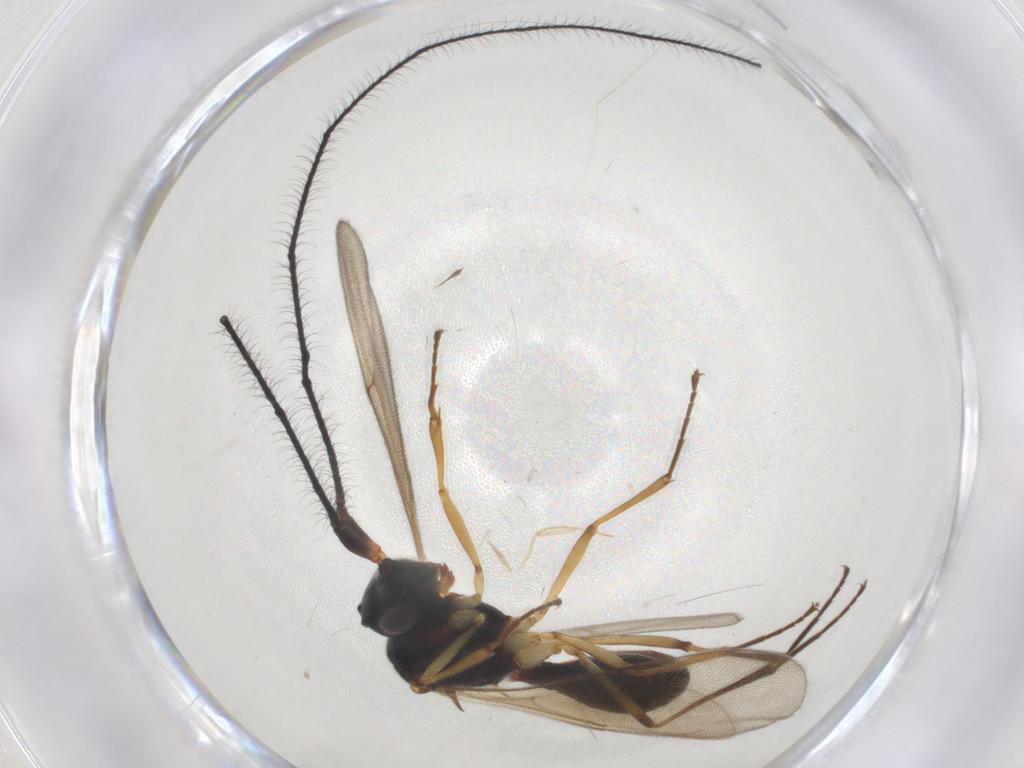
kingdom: Animalia
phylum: Arthropoda
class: Insecta
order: Hymenoptera
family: Scelionidae
